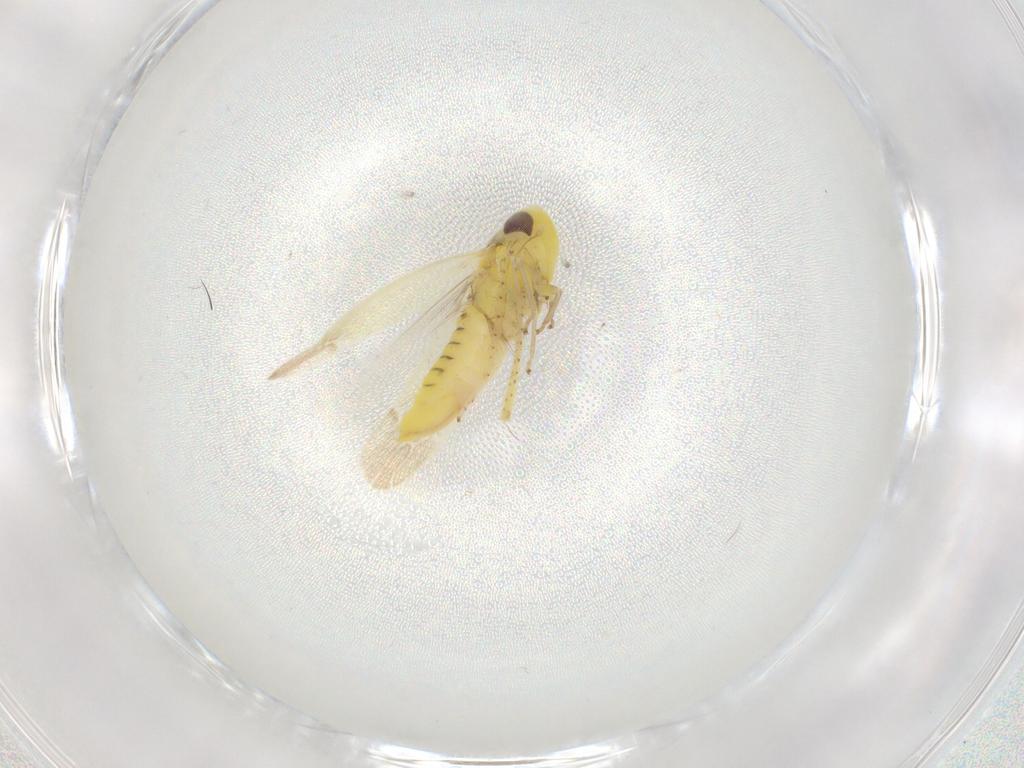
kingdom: Animalia
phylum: Arthropoda
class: Insecta
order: Hemiptera
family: Cicadellidae
